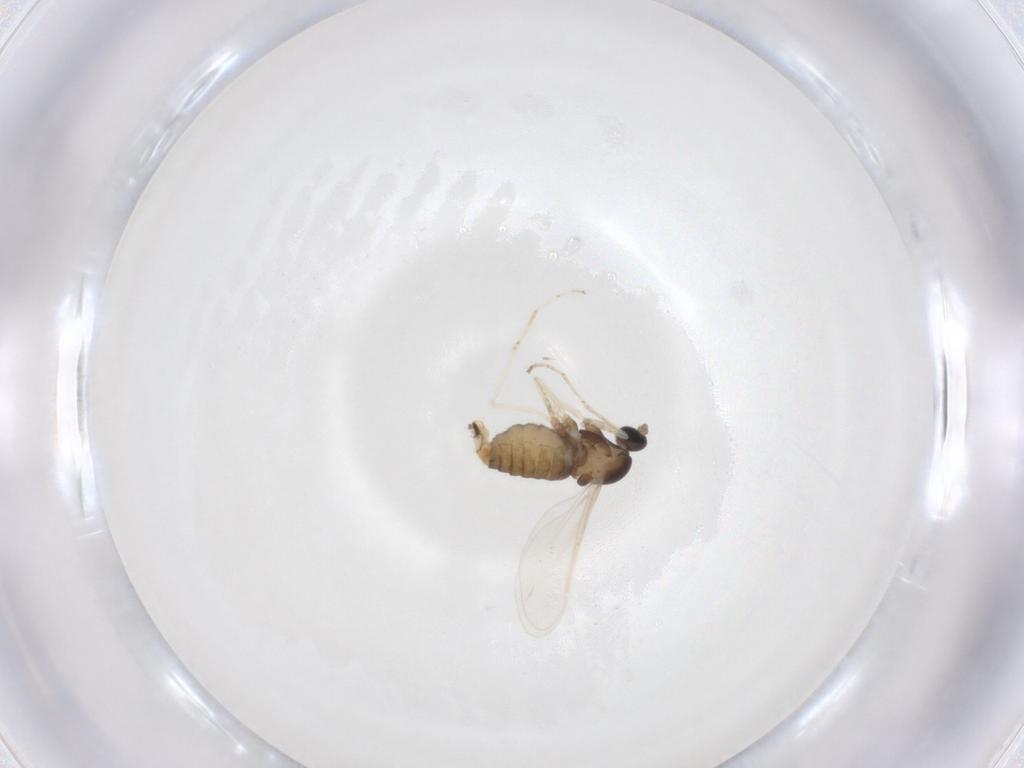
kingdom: Animalia
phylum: Arthropoda
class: Insecta
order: Diptera
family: Cecidomyiidae
